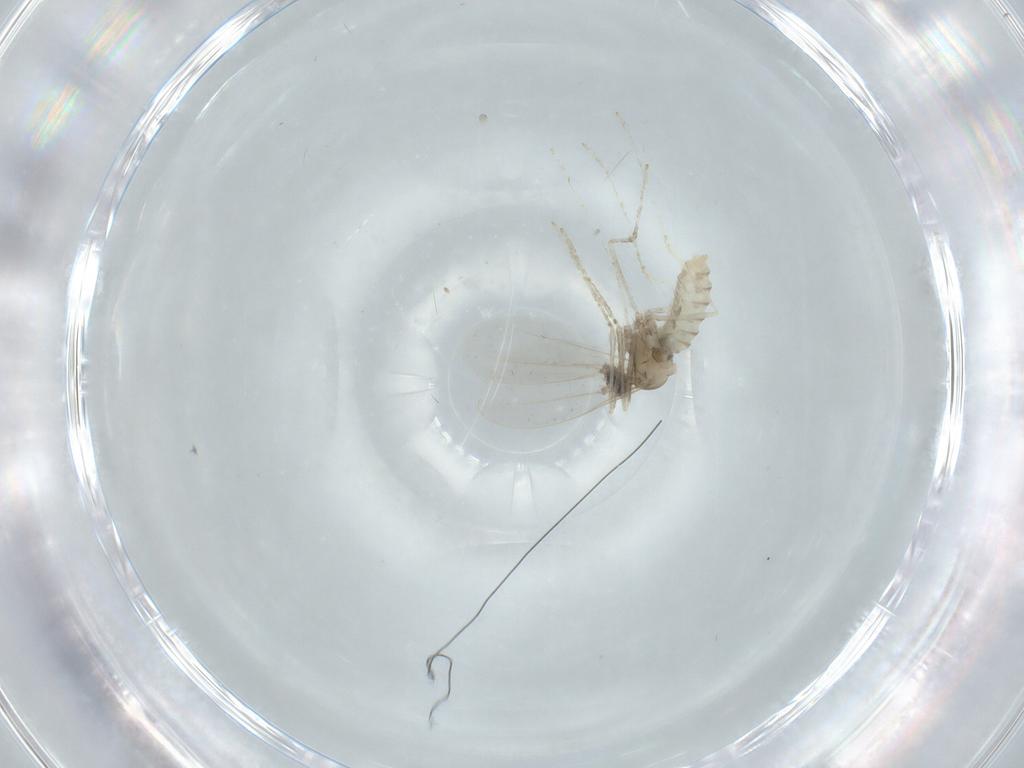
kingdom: Animalia
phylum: Arthropoda
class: Insecta
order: Diptera
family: Cecidomyiidae
